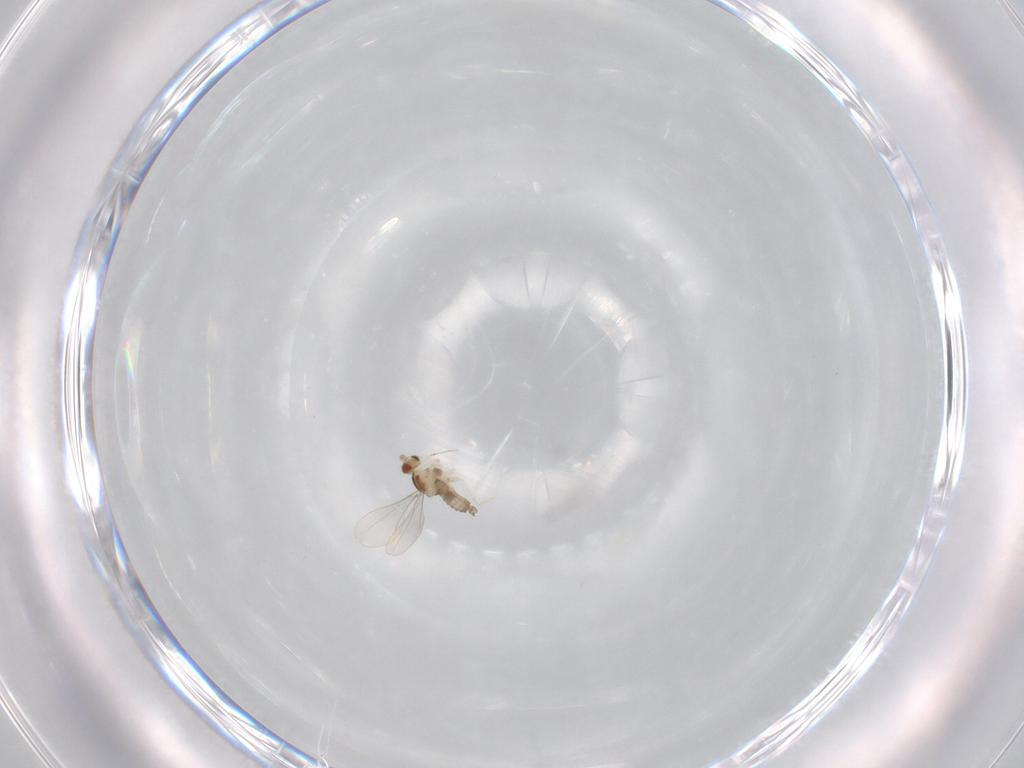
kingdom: Animalia
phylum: Arthropoda
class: Insecta
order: Diptera
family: Cecidomyiidae
